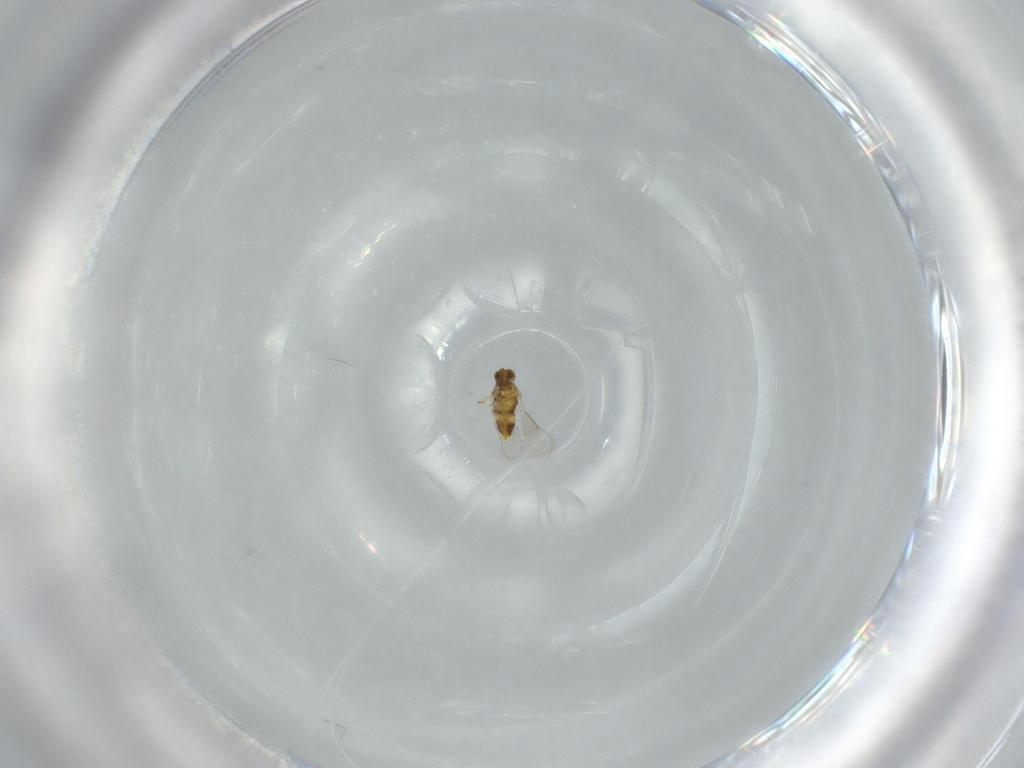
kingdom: Animalia
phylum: Arthropoda
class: Insecta
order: Hymenoptera
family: Aphelinidae
